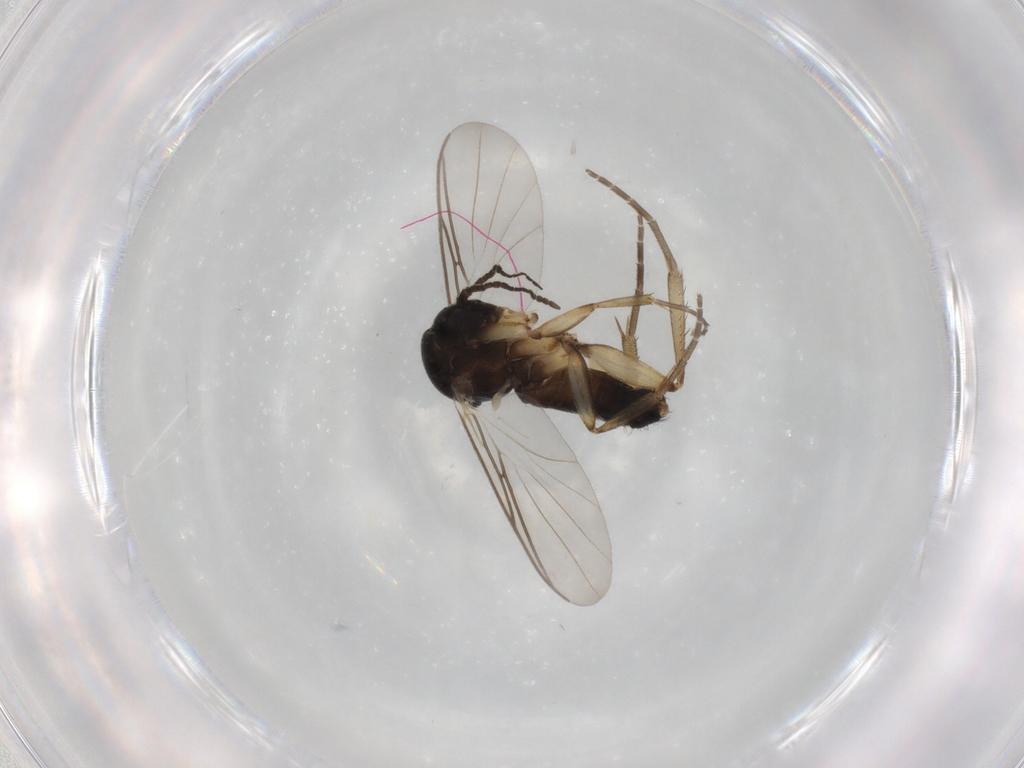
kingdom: Animalia
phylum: Arthropoda
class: Insecta
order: Diptera
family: Mycetophilidae
